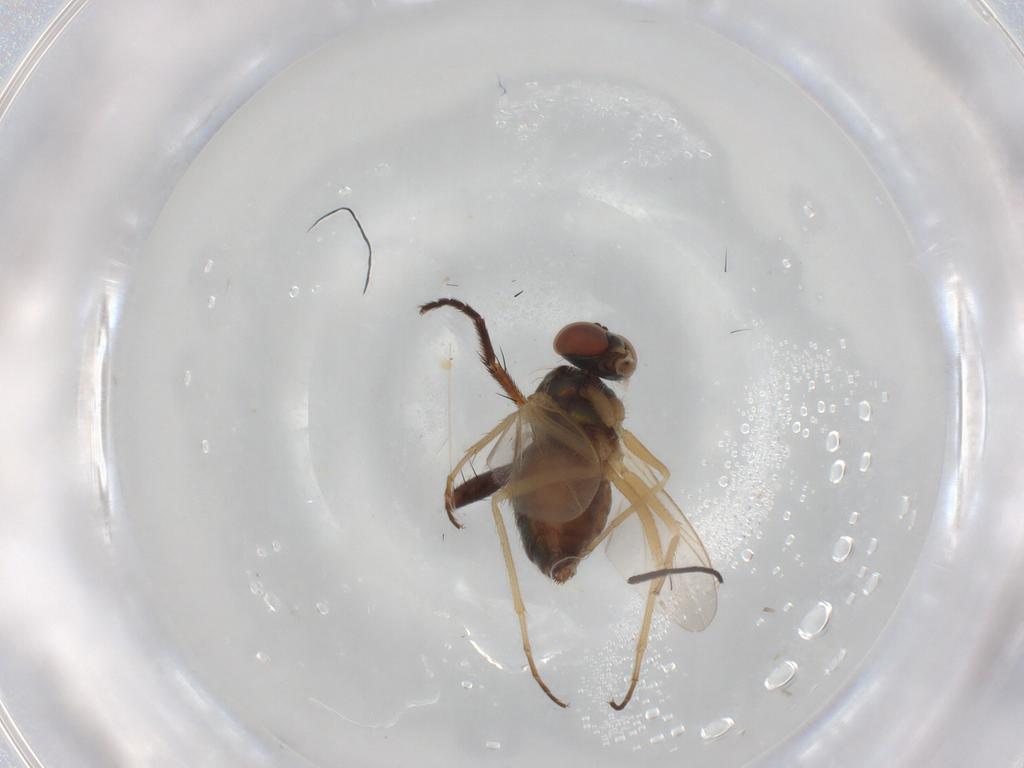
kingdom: Animalia
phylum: Arthropoda
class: Insecta
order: Diptera
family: Dolichopodidae
